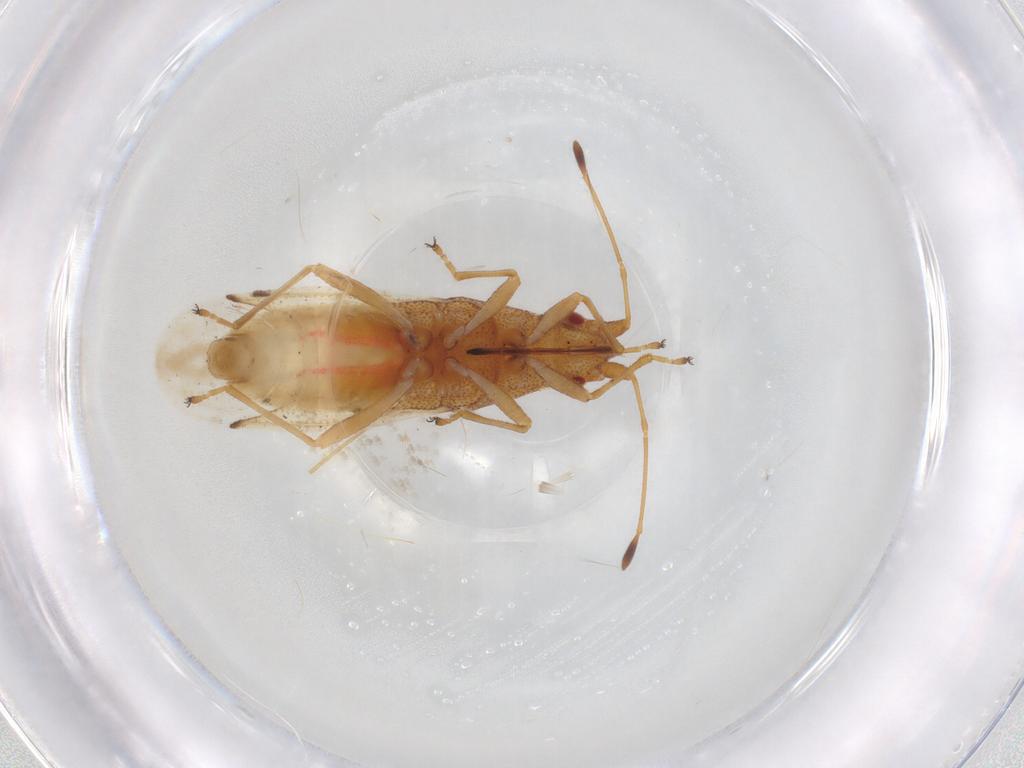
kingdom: Animalia
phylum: Arthropoda
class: Insecta
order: Hemiptera
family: Cymidae
